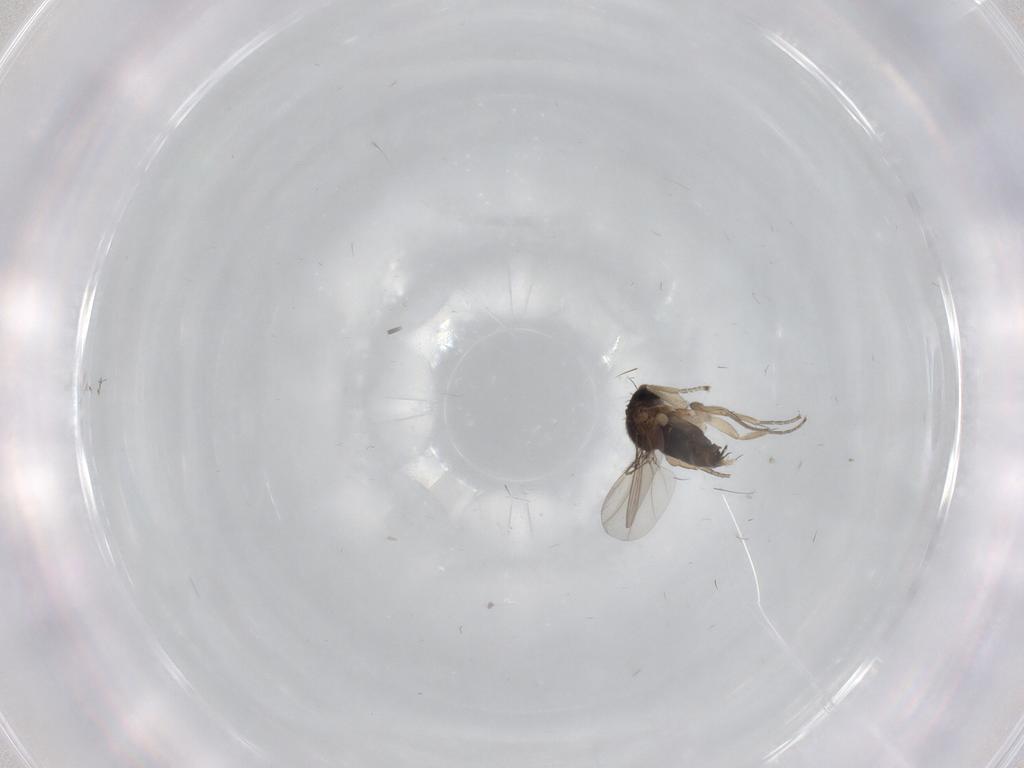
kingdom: Animalia
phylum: Arthropoda
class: Insecta
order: Diptera
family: Phoridae
